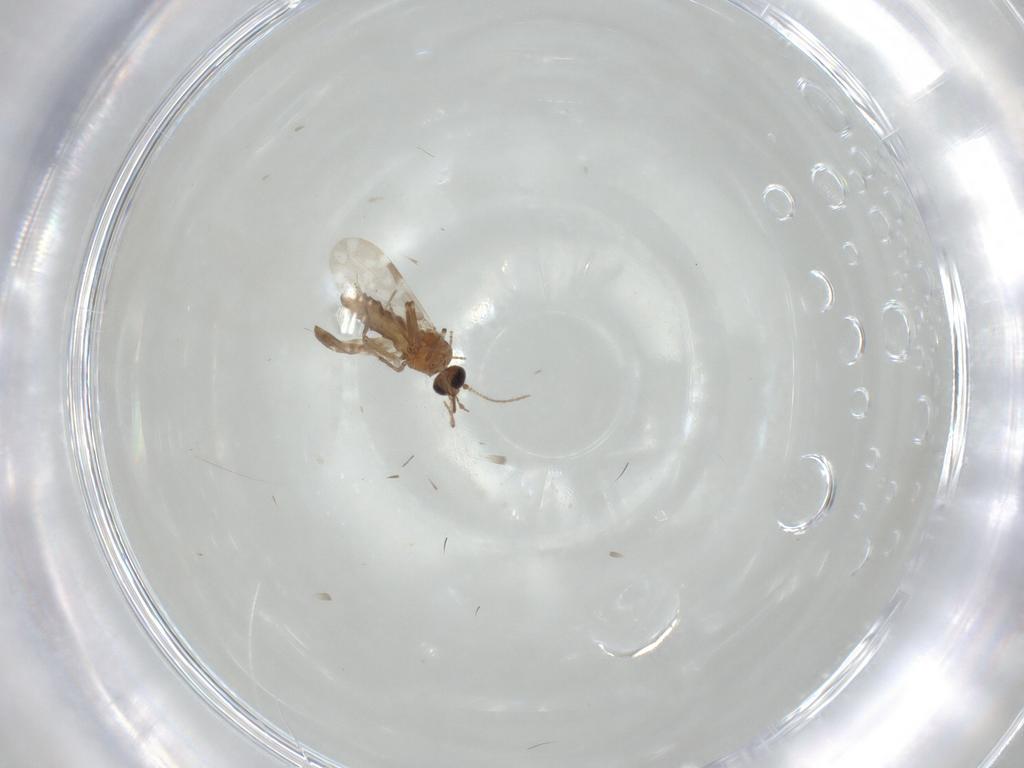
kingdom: Animalia
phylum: Arthropoda
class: Insecta
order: Diptera
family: Ceratopogonidae
